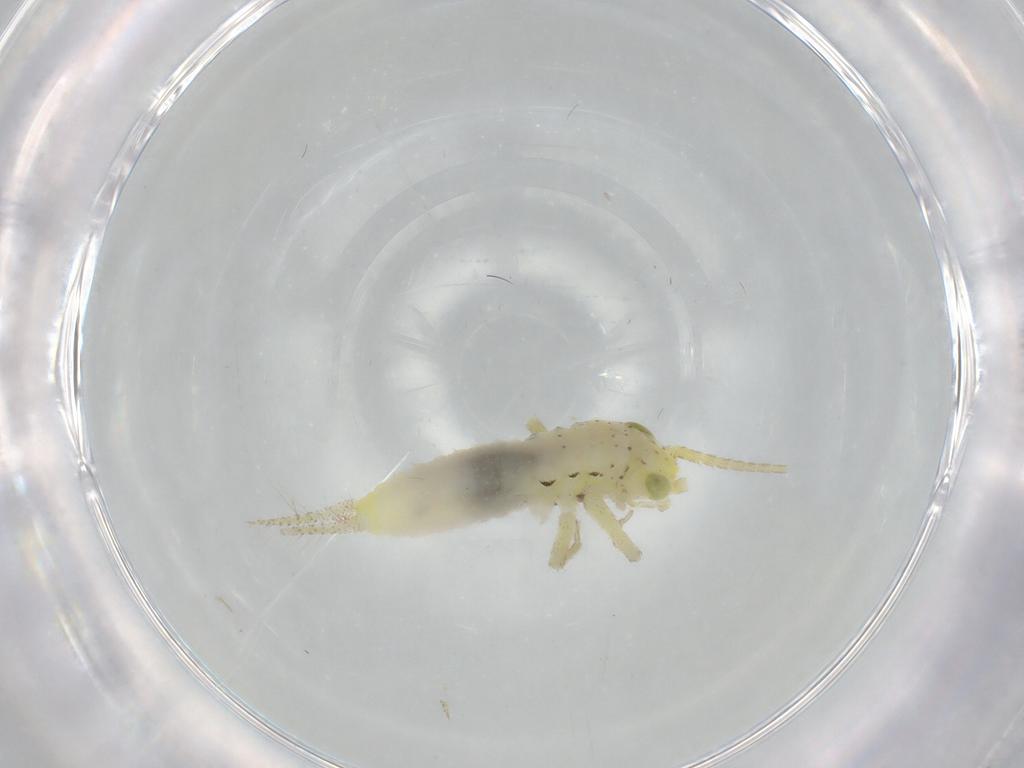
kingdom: Animalia
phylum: Arthropoda
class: Insecta
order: Orthoptera
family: Trigonidiidae
